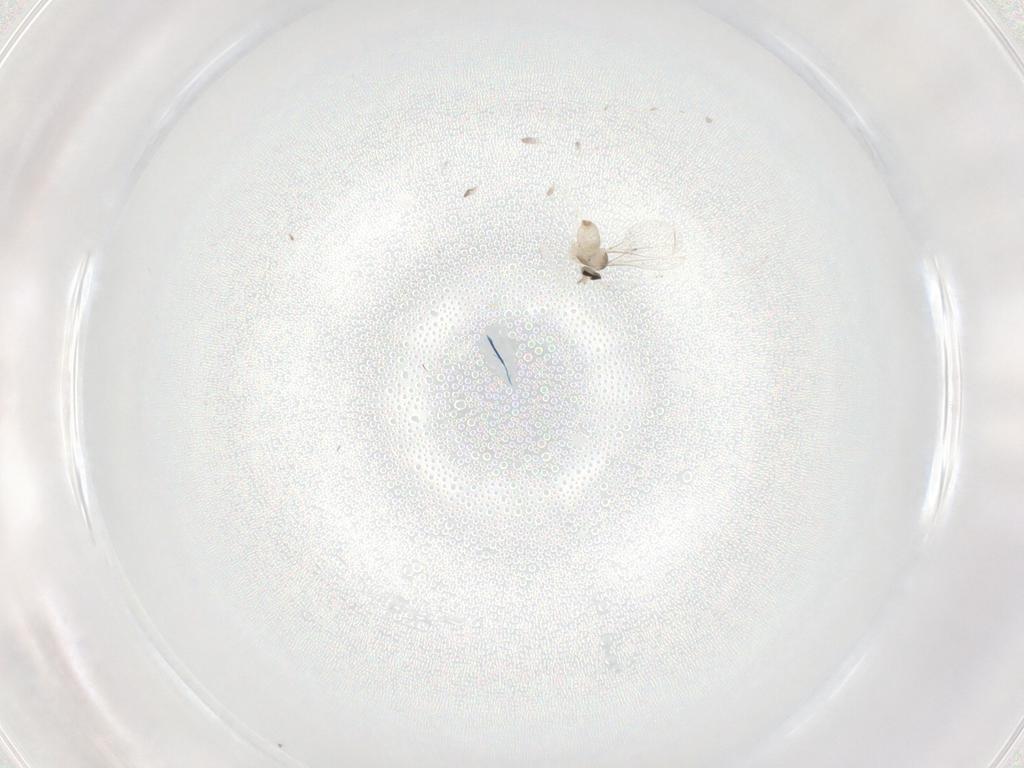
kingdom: Animalia
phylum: Arthropoda
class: Insecta
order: Diptera
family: Cecidomyiidae
